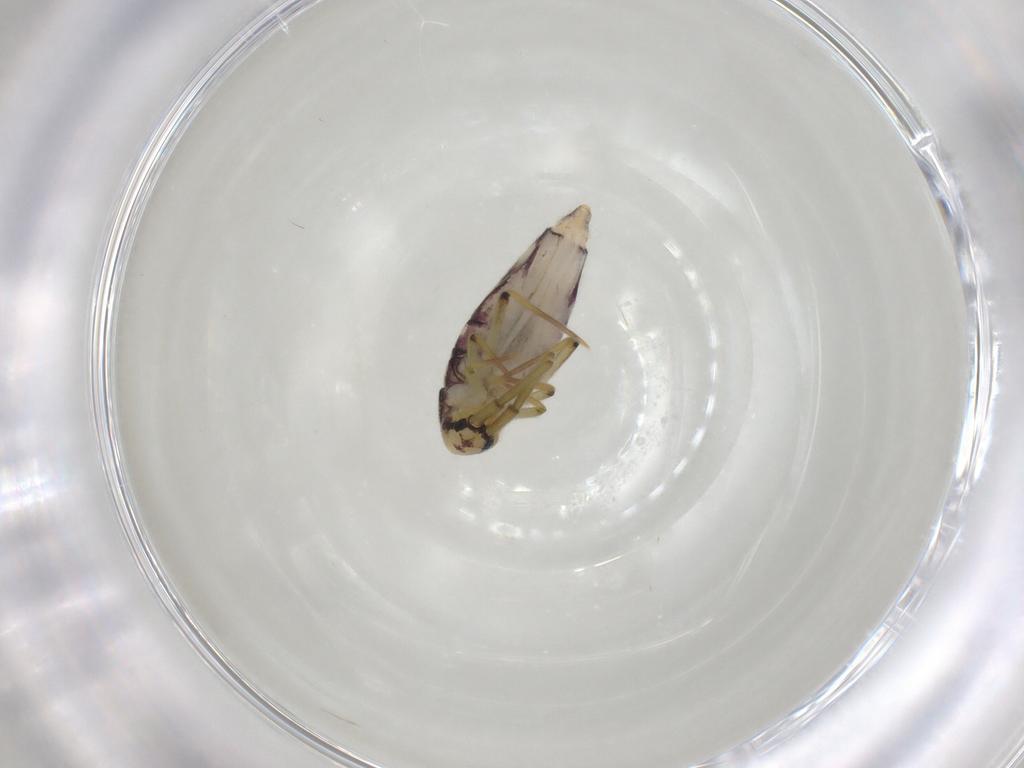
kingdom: Animalia
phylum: Arthropoda
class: Collembola
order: Entomobryomorpha
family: Entomobryidae
